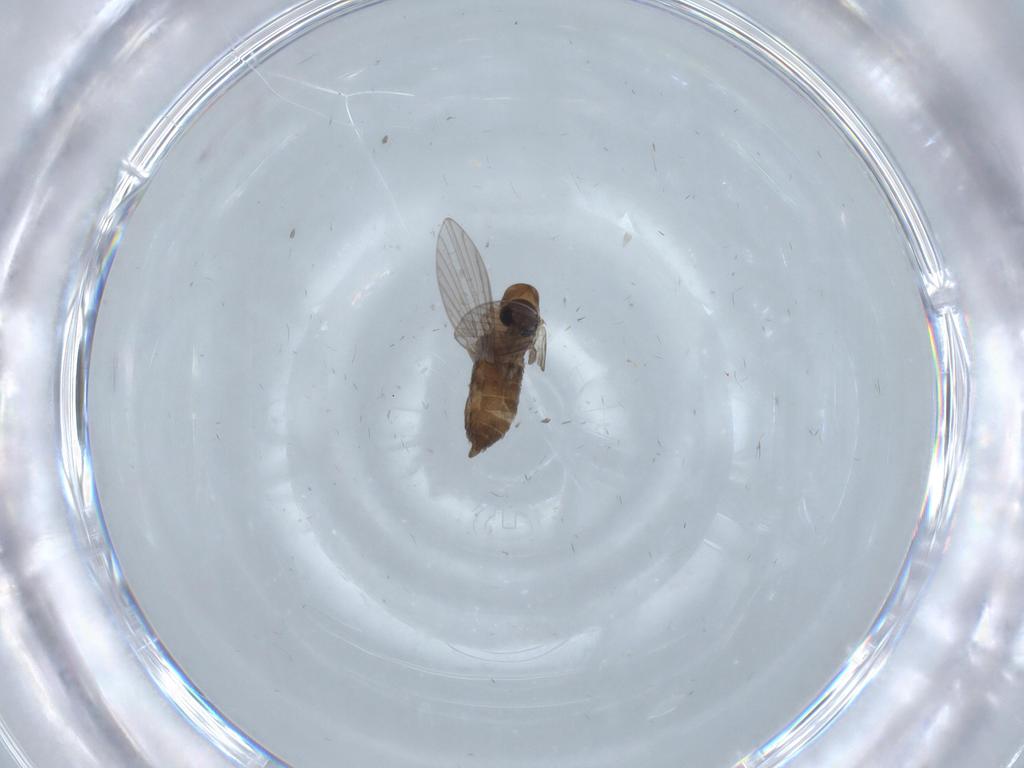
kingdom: Animalia
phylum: Arthropoda
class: Insecta
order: Diptera
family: Psychodidae
